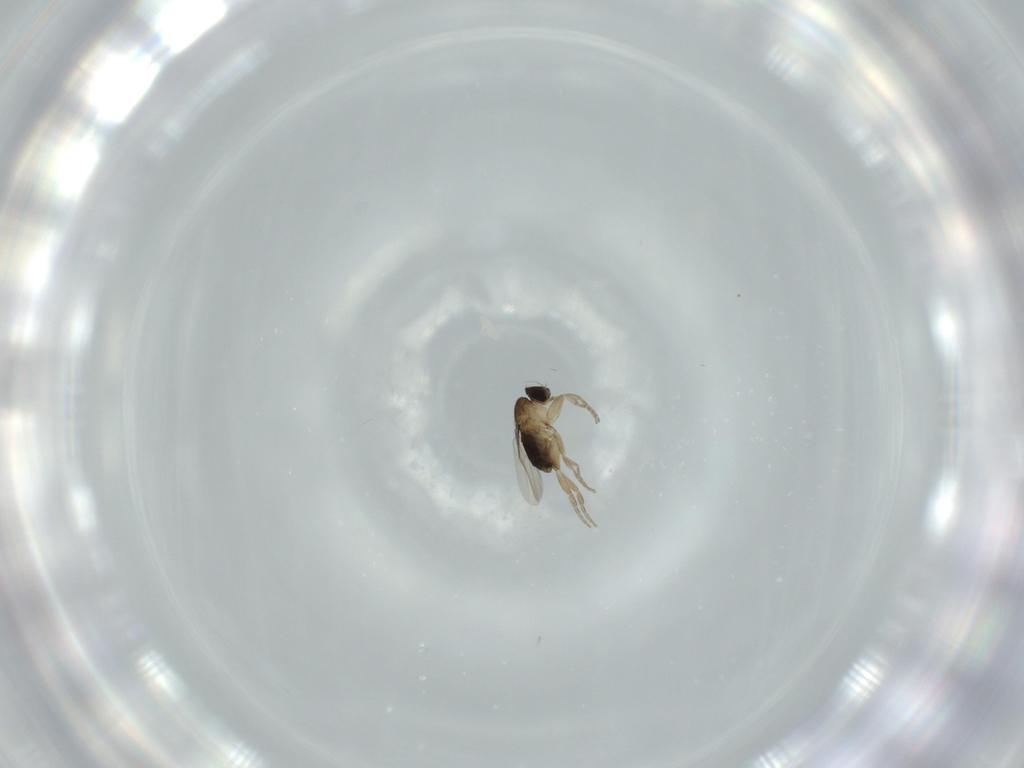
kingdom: Animalia
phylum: Arthropoda
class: Insecta
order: Diptera
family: Phoridae
